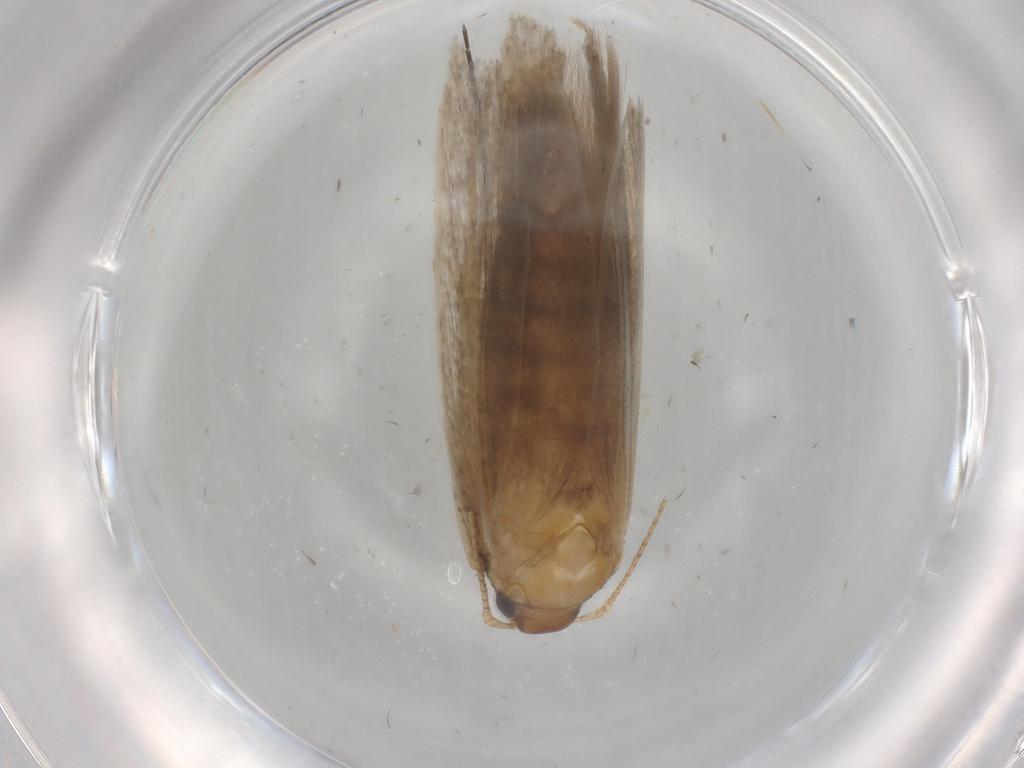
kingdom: Animalia
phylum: Arthropoda
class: Insecta
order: Lepidoptera
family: Gelechiidae
